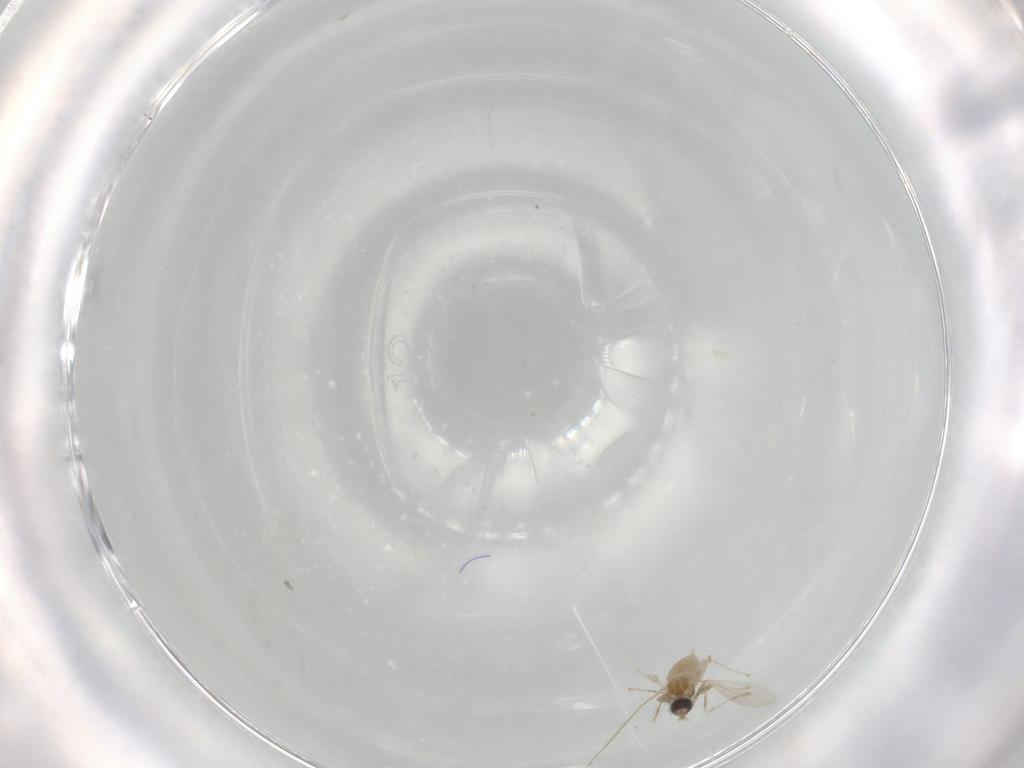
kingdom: Animalia
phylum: Arthropoda
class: Insecta
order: Diptera
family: Cecidomyiidae
